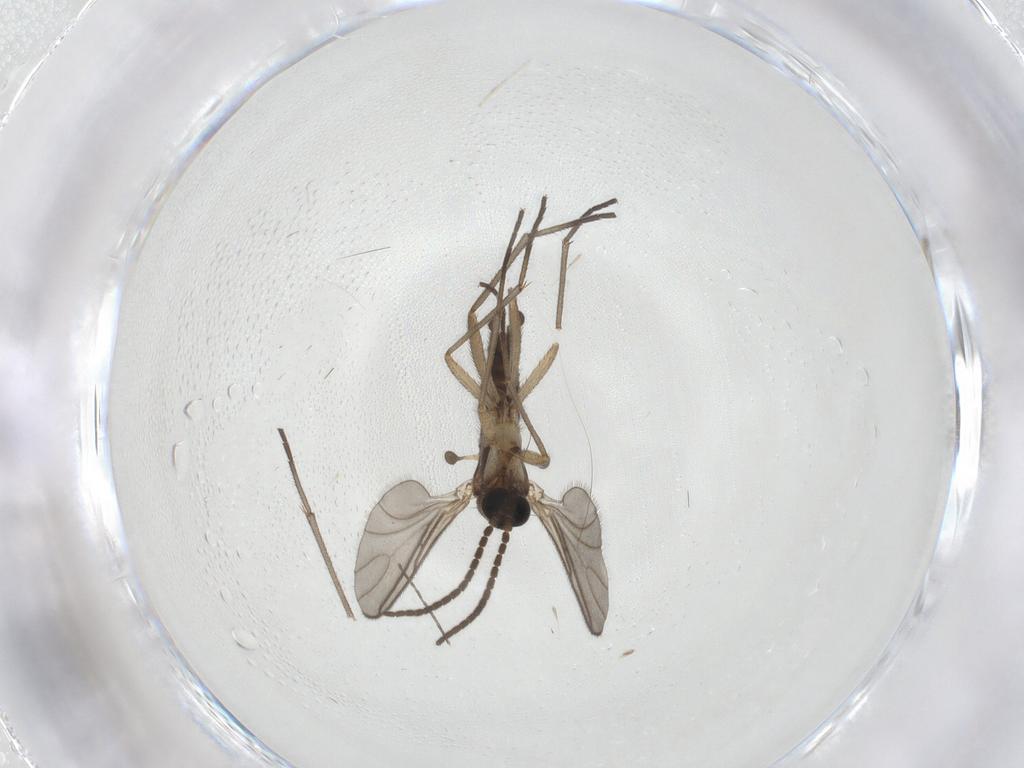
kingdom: Animalia
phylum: Arthropoda
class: Insecta
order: Diptera
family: Sciaridae
